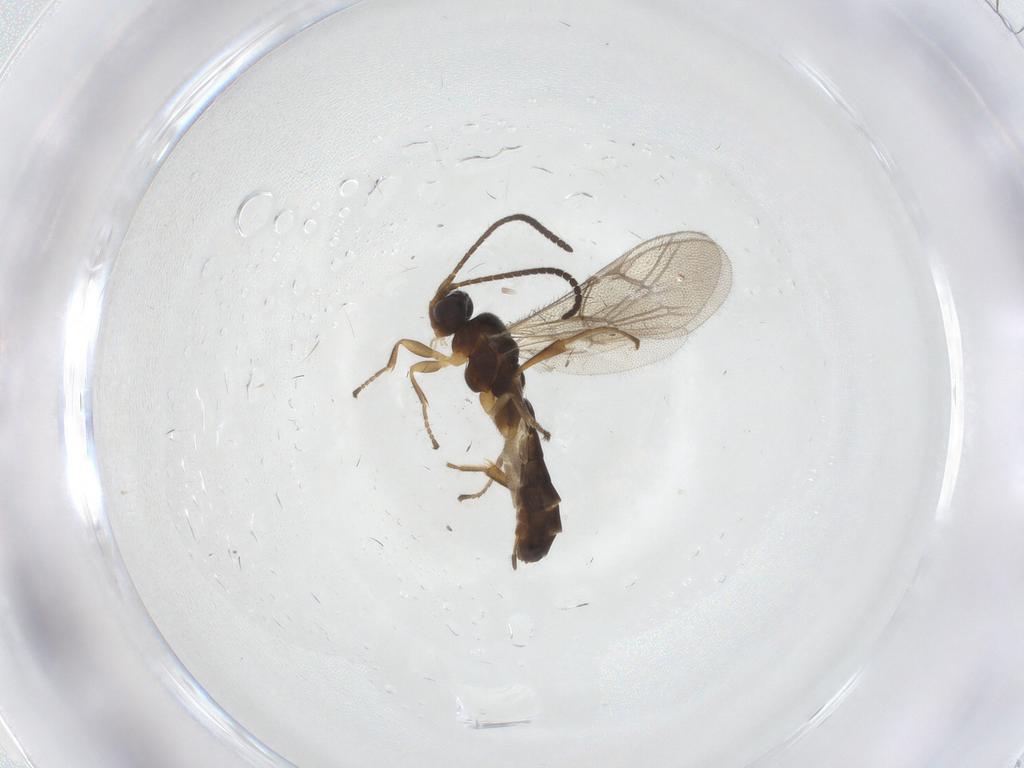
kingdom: Animalia
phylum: Arthropoda
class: Insecta
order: Hymenoptera
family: Ichneumonidae
